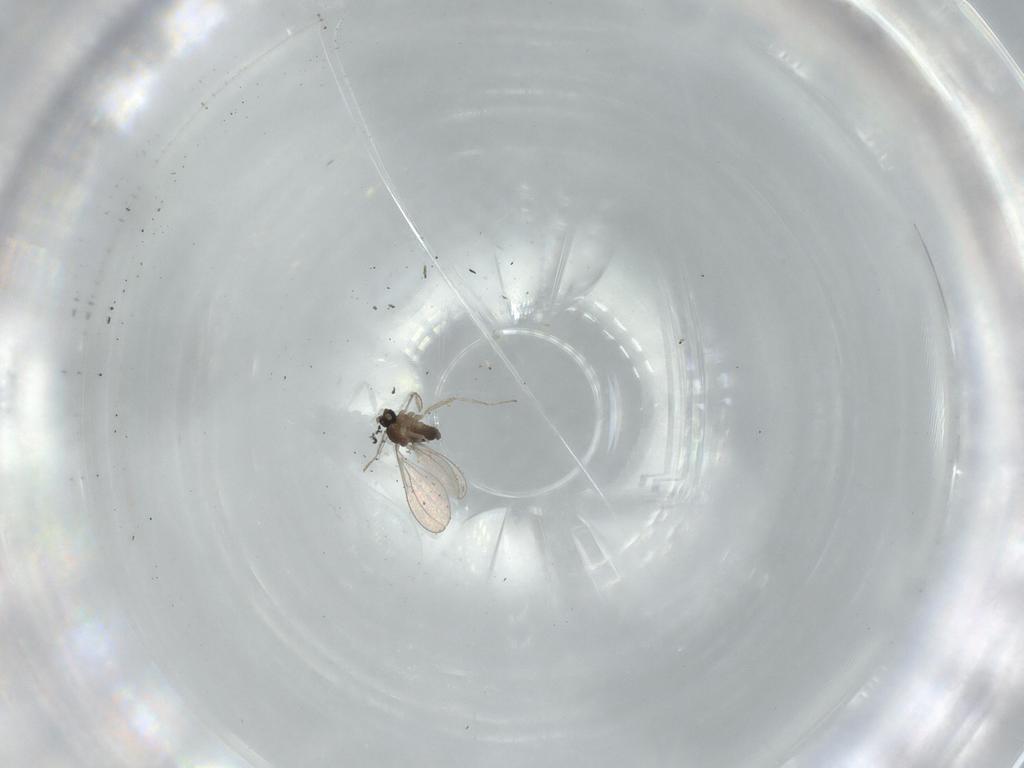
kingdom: Animalia
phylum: Arthropoda
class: Insecta
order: Diptera
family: Cecidomyiidae
